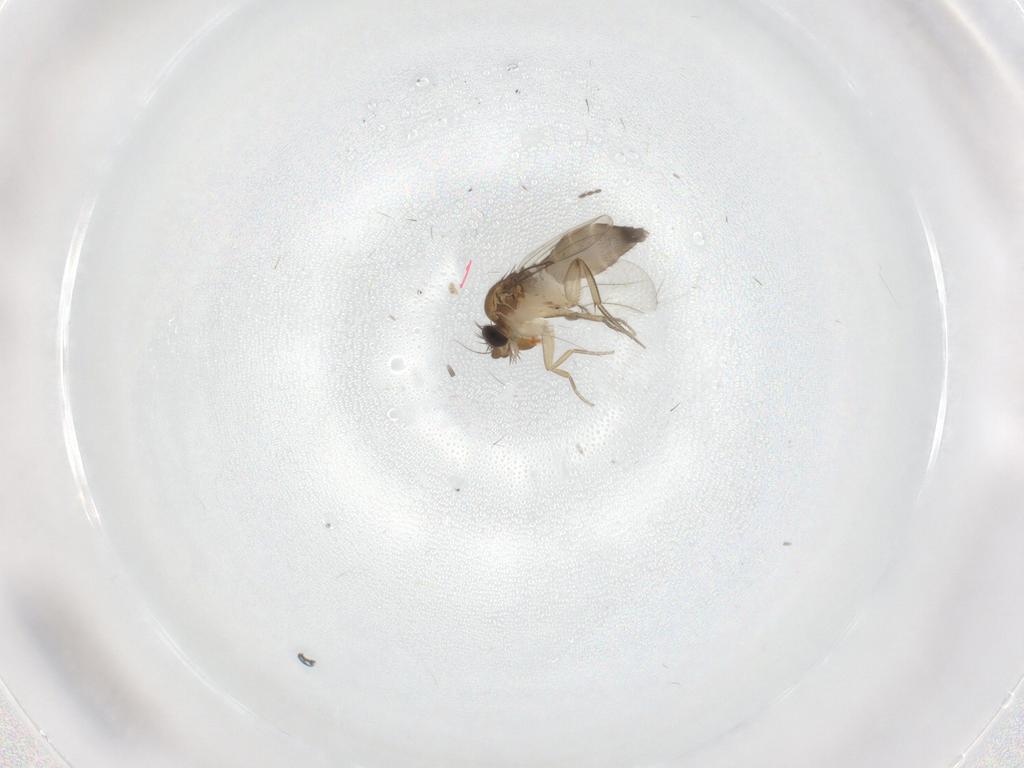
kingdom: Animalia
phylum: Arthropoda
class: Insecta
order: Diptera
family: Sciaridae
